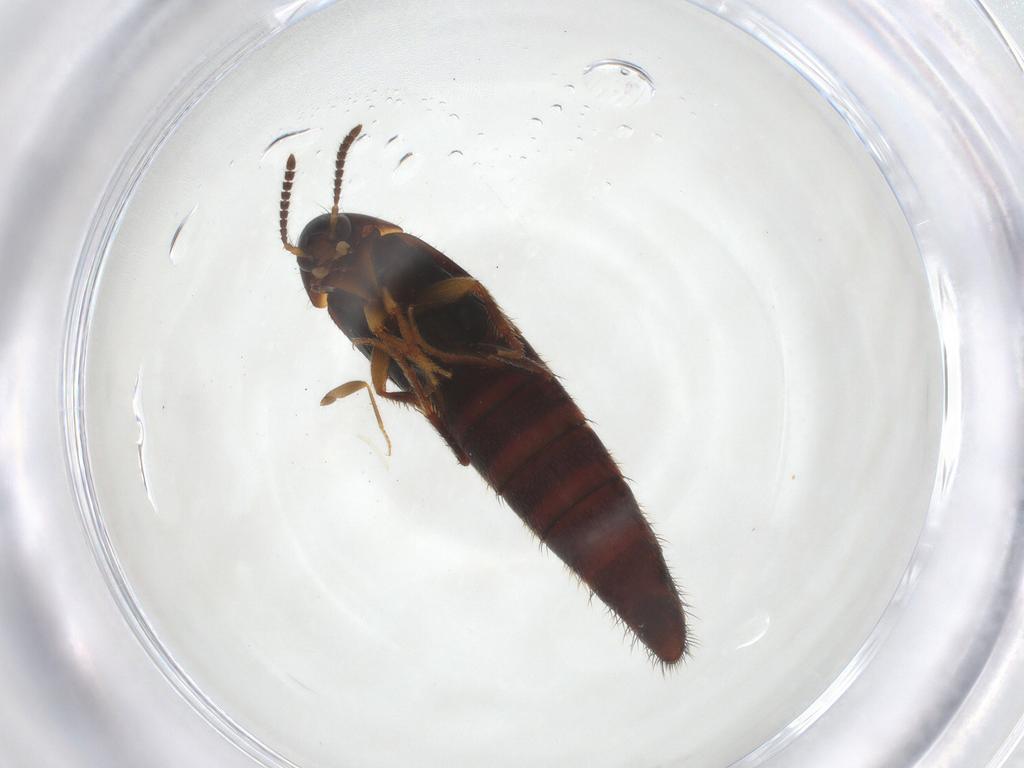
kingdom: Animalia
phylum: Arthropoda
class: Insecta
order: Coleoptera
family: Staphylinidae
